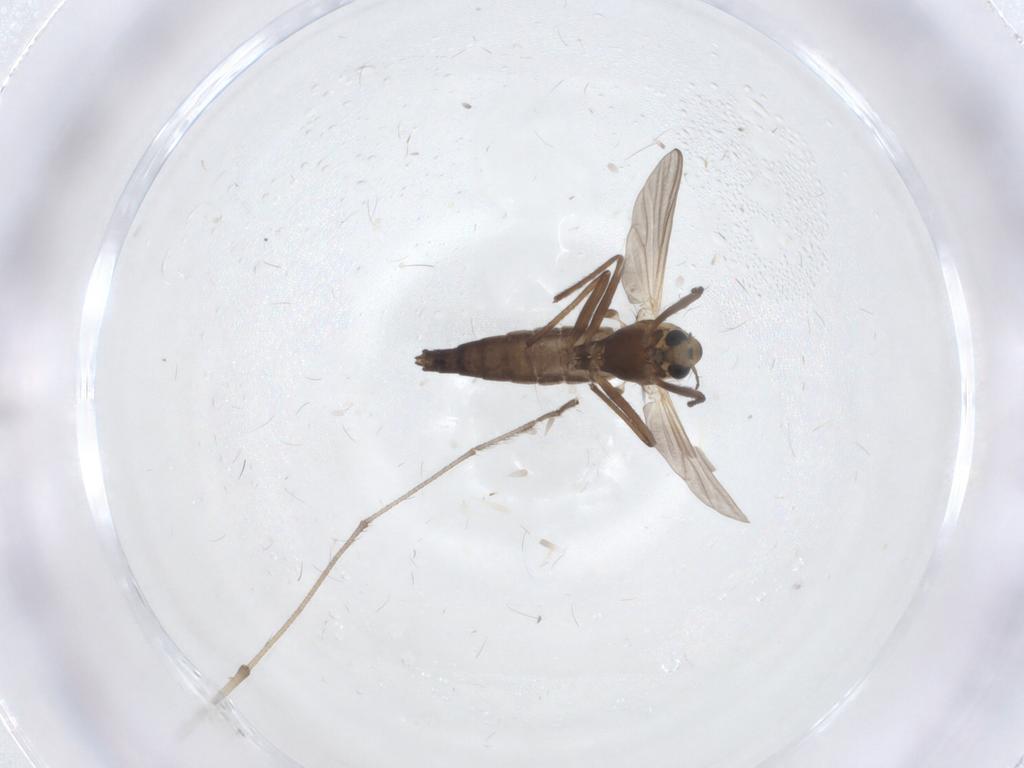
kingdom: Animalia
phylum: Arthropoda
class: Insecta
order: Diptera
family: Chironomidae
